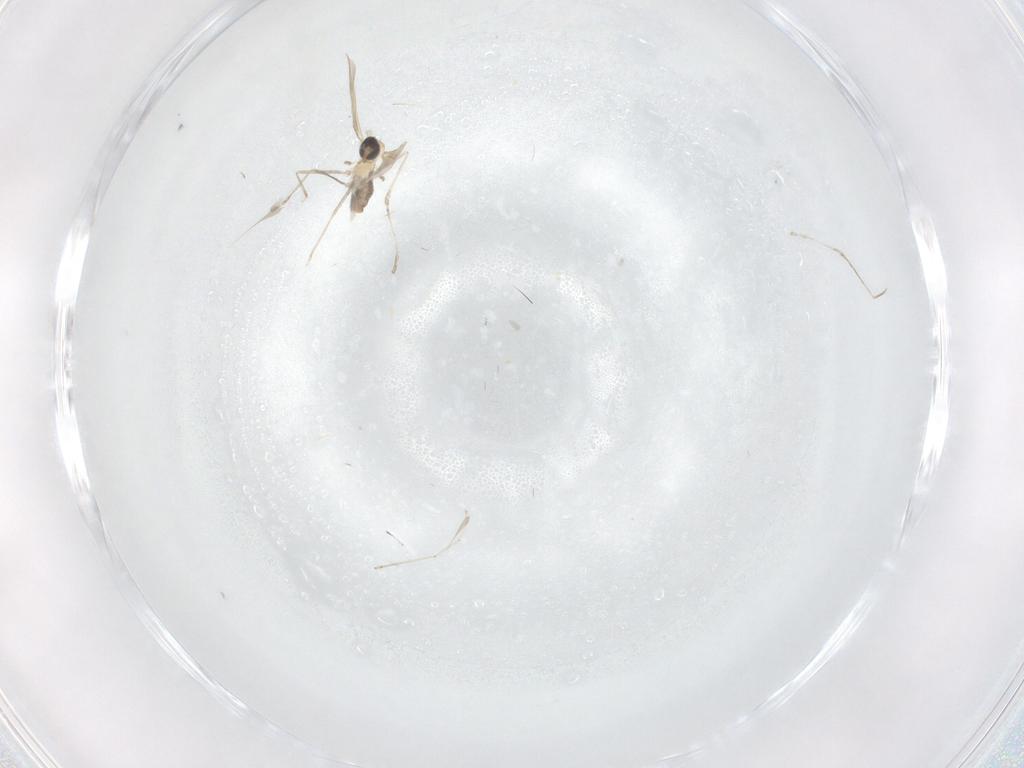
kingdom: Animalia
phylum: Arthropoda
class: Insecta
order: Diptera
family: Cecidomyiidae
